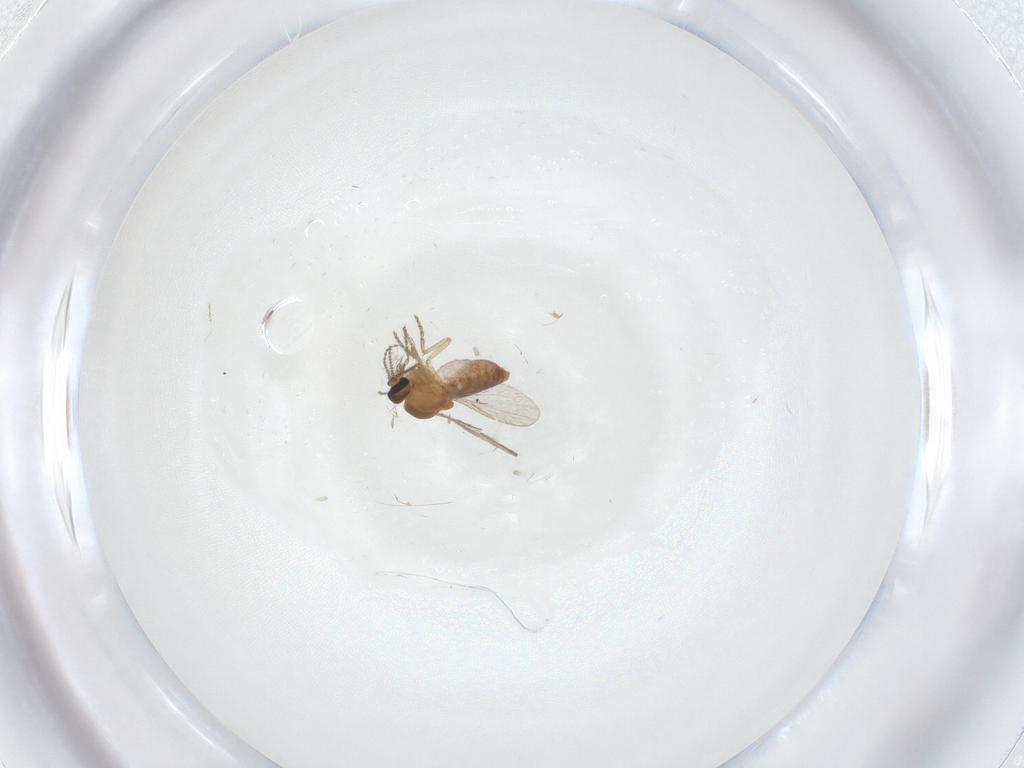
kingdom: Animalia
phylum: Arthropoda
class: Insecta
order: Diptera
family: Ceratopogonidae
